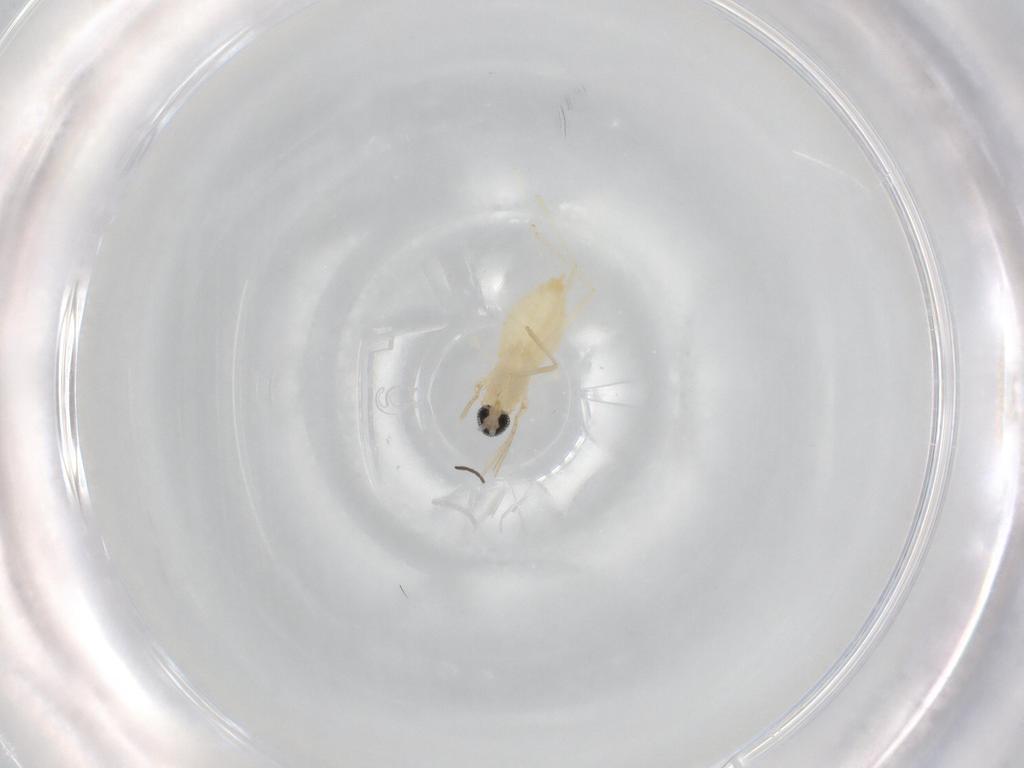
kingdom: Animalia
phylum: Arthropoda
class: Insecta
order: Diptera
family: Cecidomyiidae
